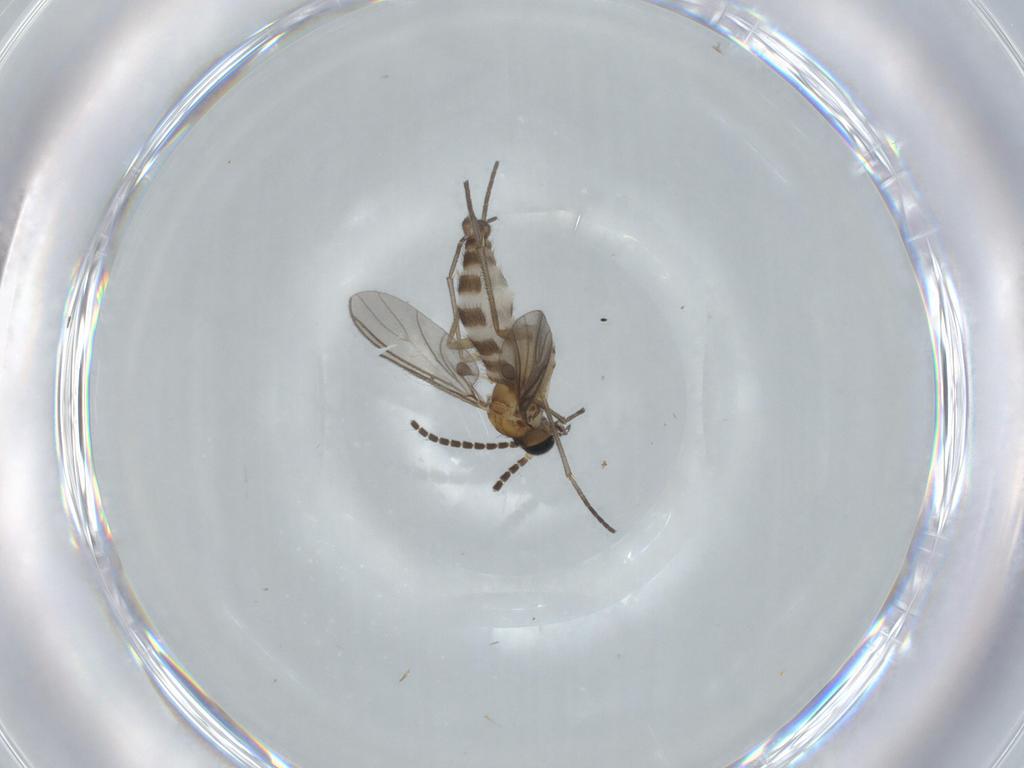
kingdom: Animalia
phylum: Arthropoda
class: Insecta
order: Diptera
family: Sciaridae
